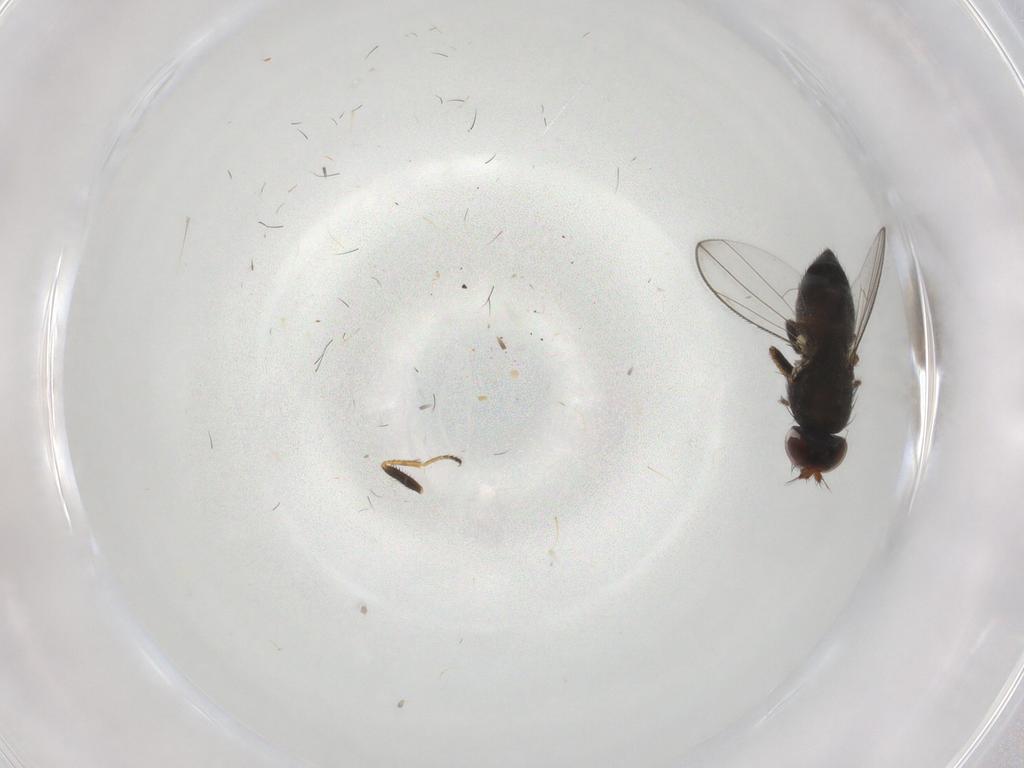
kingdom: Animalia
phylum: Arthropoda
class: Insecta
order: Diptera
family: Ephydridae
